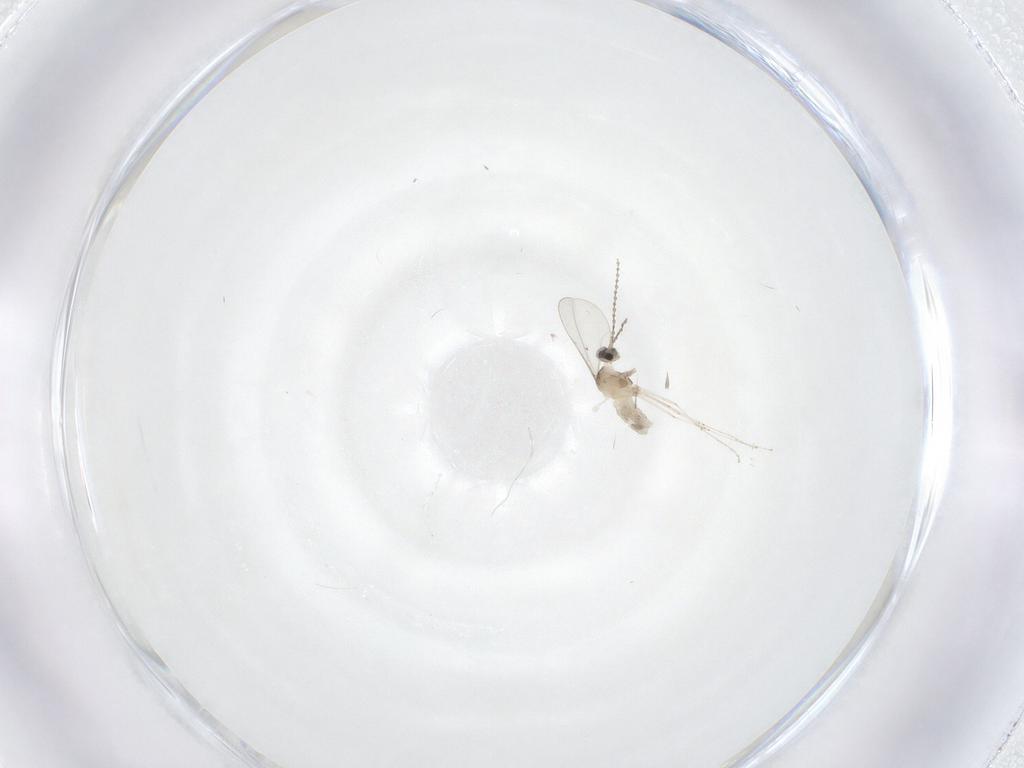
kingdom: Animalia
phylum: Arthropoda
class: Insecta
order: Diptera
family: Cecidomyiidae
